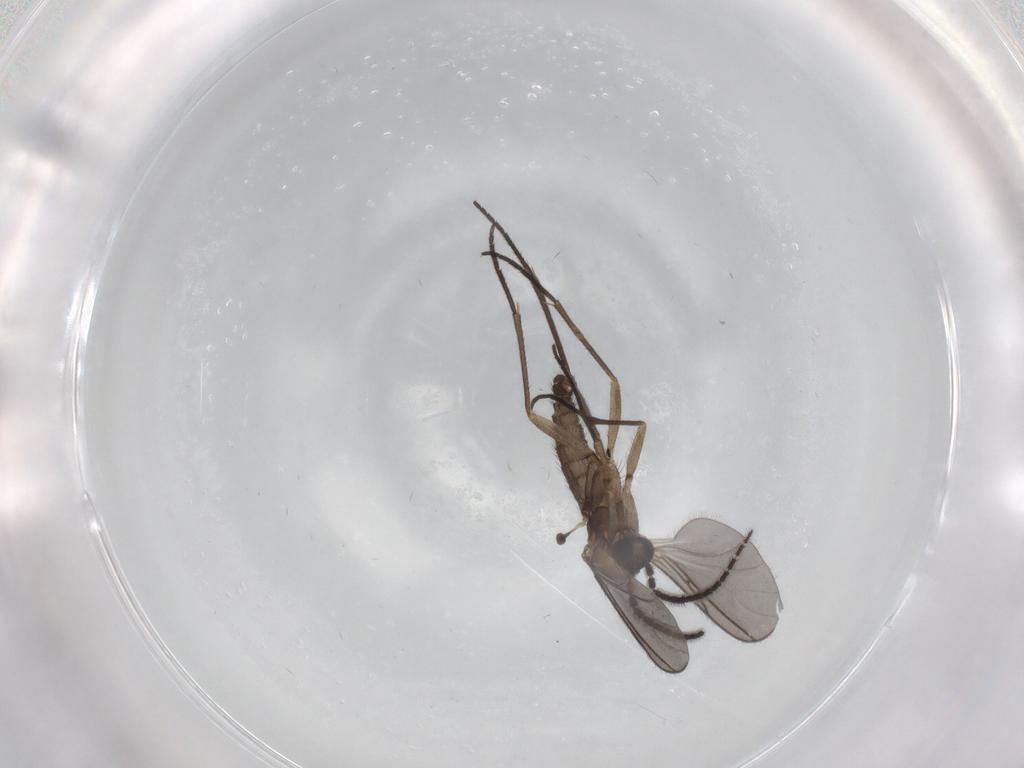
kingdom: Animalia
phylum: Arthropoda
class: Insecta
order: Diptera
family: Sciaridae
